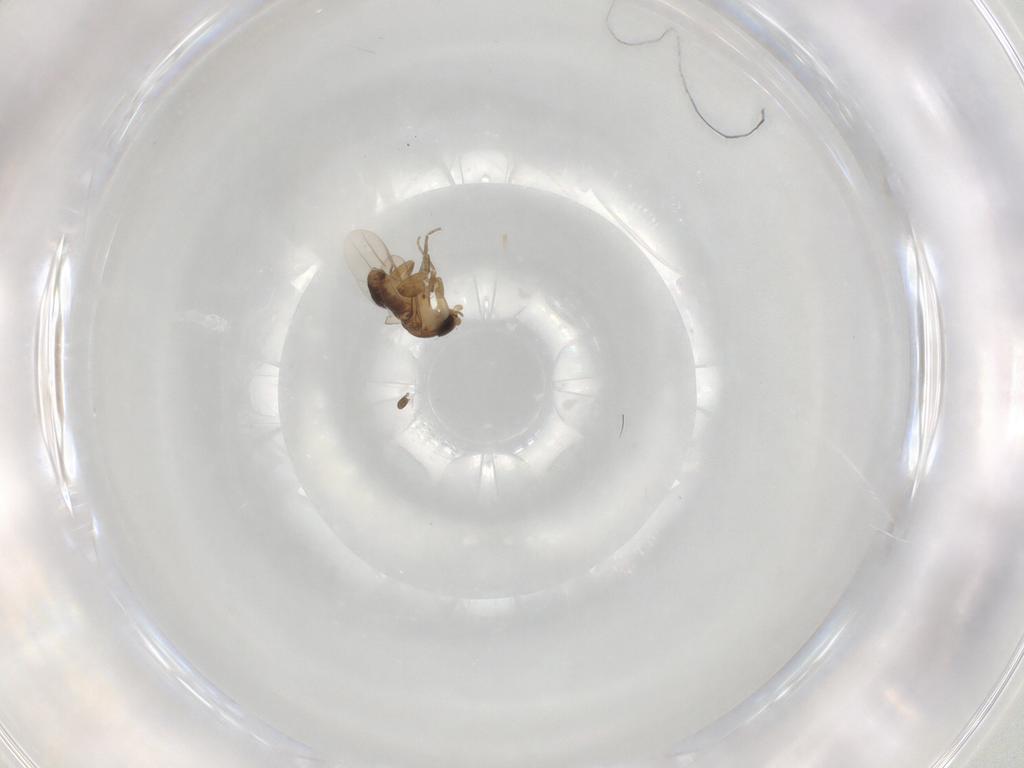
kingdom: Animalia
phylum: Arthropoda
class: Insecta
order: Diptera
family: Phoridae
